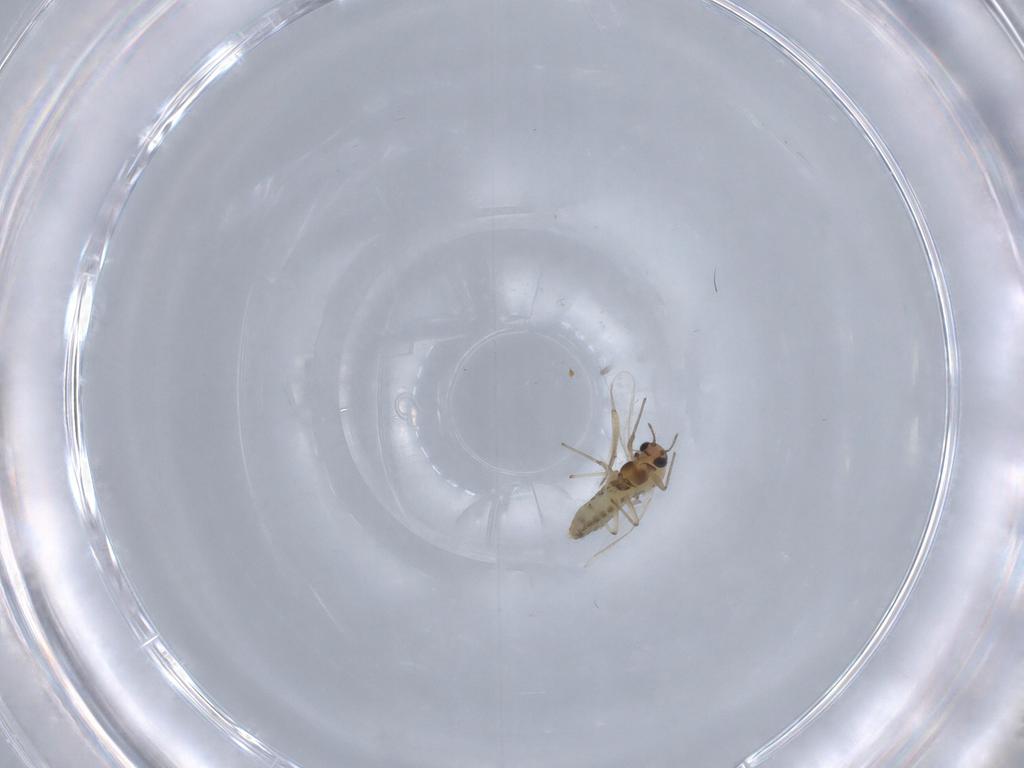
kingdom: Animalia
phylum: Arthropoda
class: Insecta
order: Diptera
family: Chironomidae
